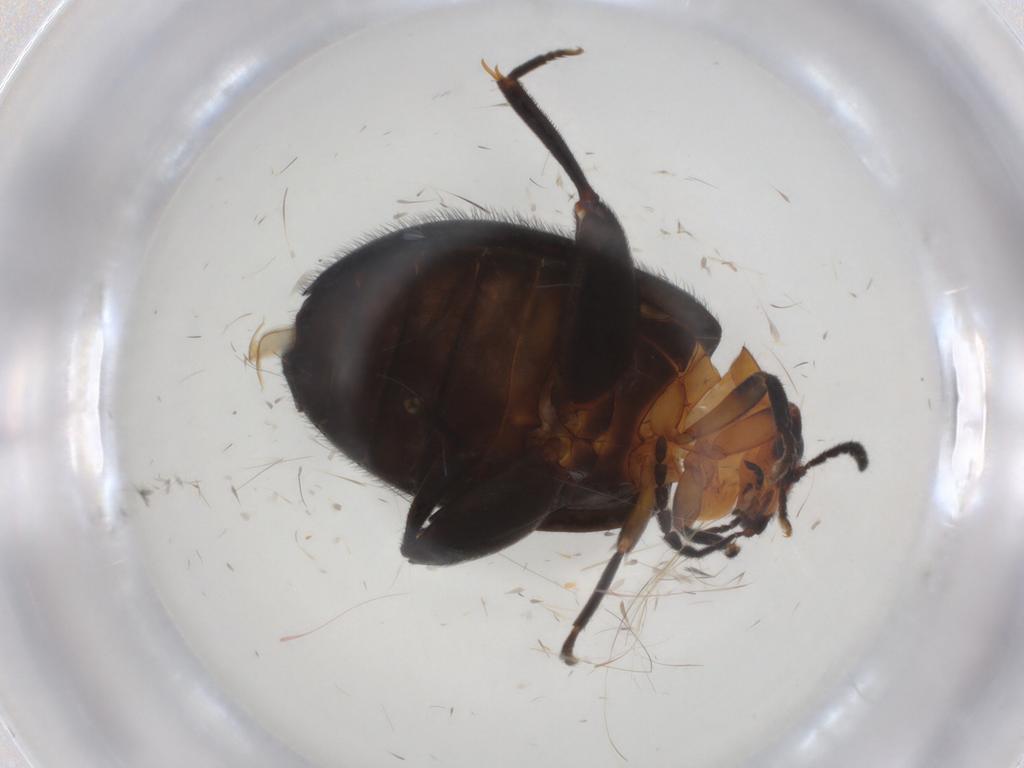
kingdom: Animalia
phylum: Arthropoda
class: Insecta
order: Coleoptera
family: Scirtidae
